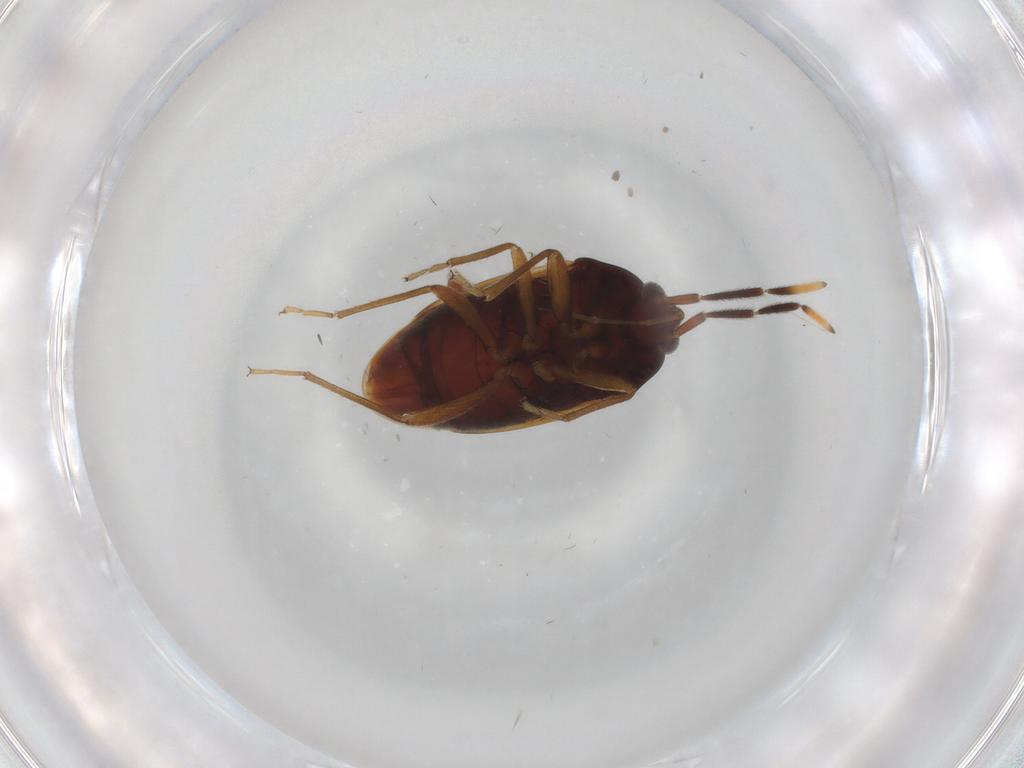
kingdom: Animalia
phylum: Arthropoda
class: Insecta
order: Hemiptera
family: Rhyparochromidae
